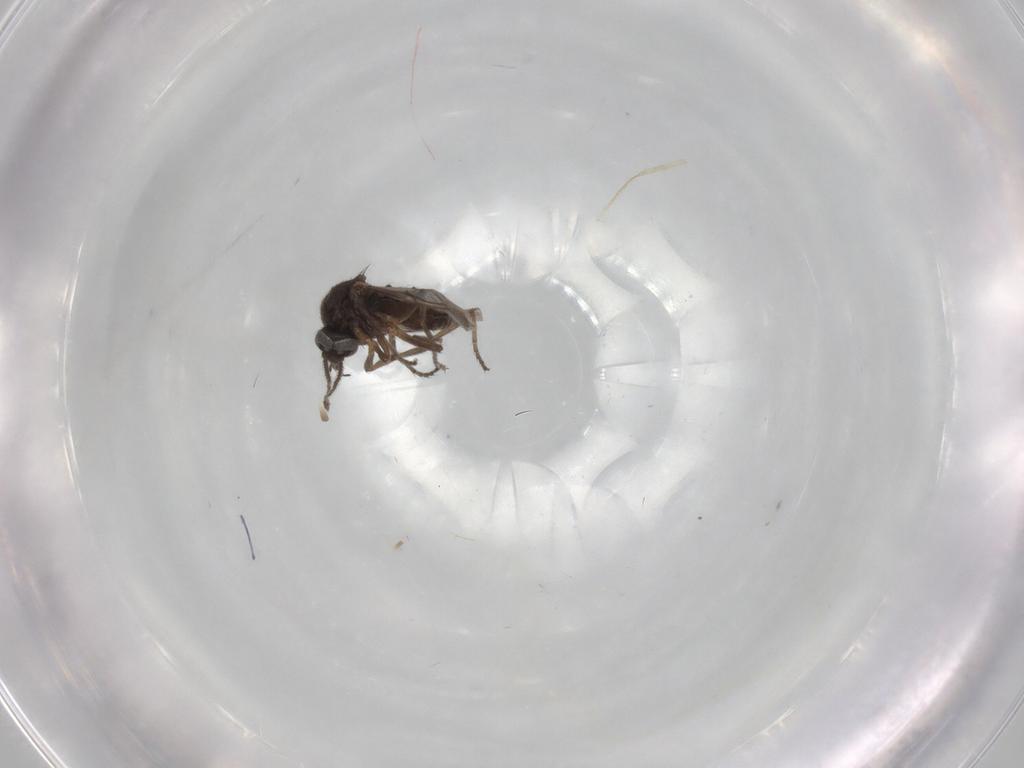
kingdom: Animalia
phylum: Arthropoda
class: Insecta
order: Diptera
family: Ceratopogonidae
